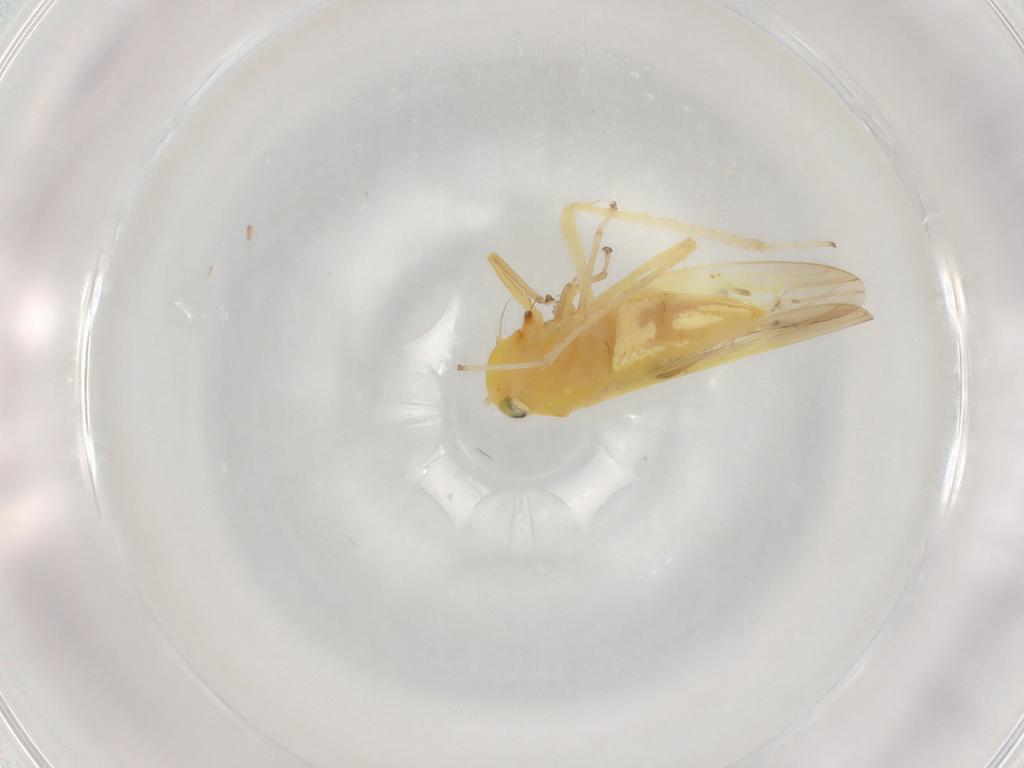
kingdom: Animalia
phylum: Arthropoda
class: Insecta
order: Hemiptera
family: Cicadellidae
